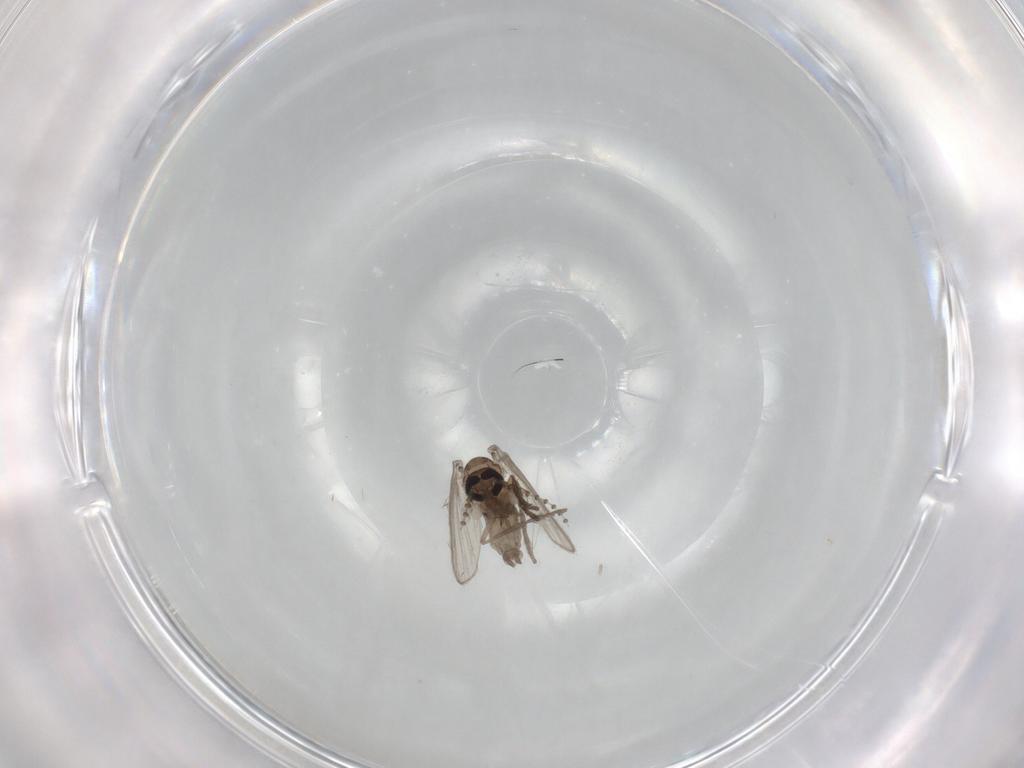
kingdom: Animalia
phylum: Arthropoda
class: Insecta
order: Diptera
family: Psychodidae
